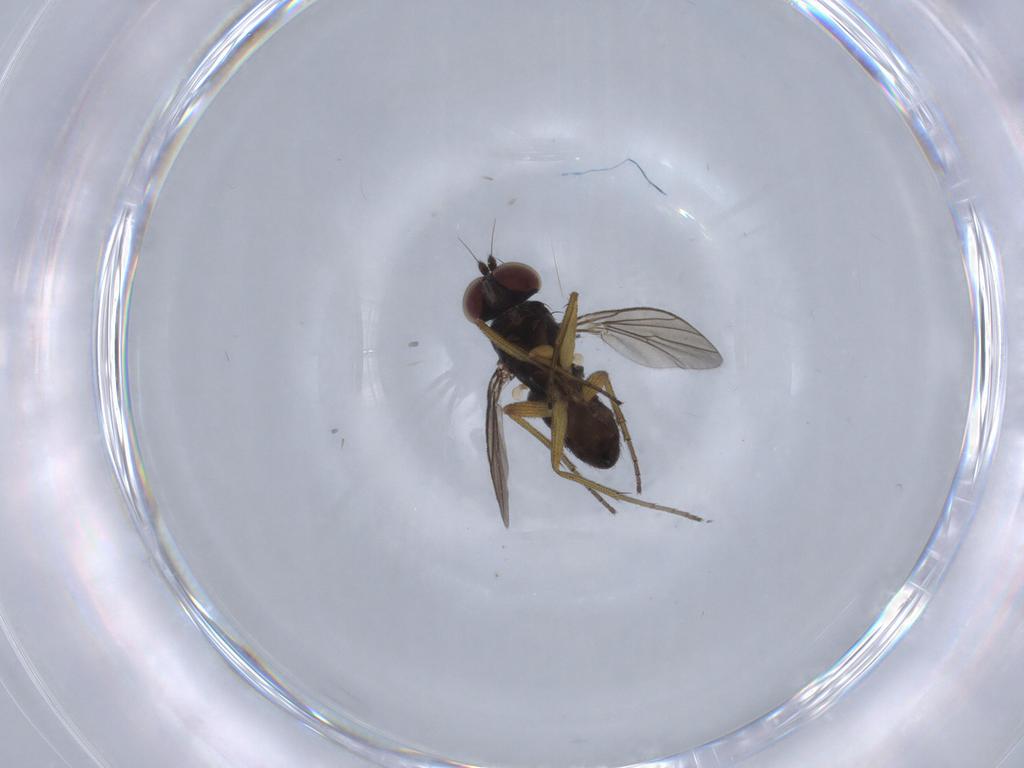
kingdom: Animalia
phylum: Arthropoda
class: Insecta
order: Diptera
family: Dolichopodidae
